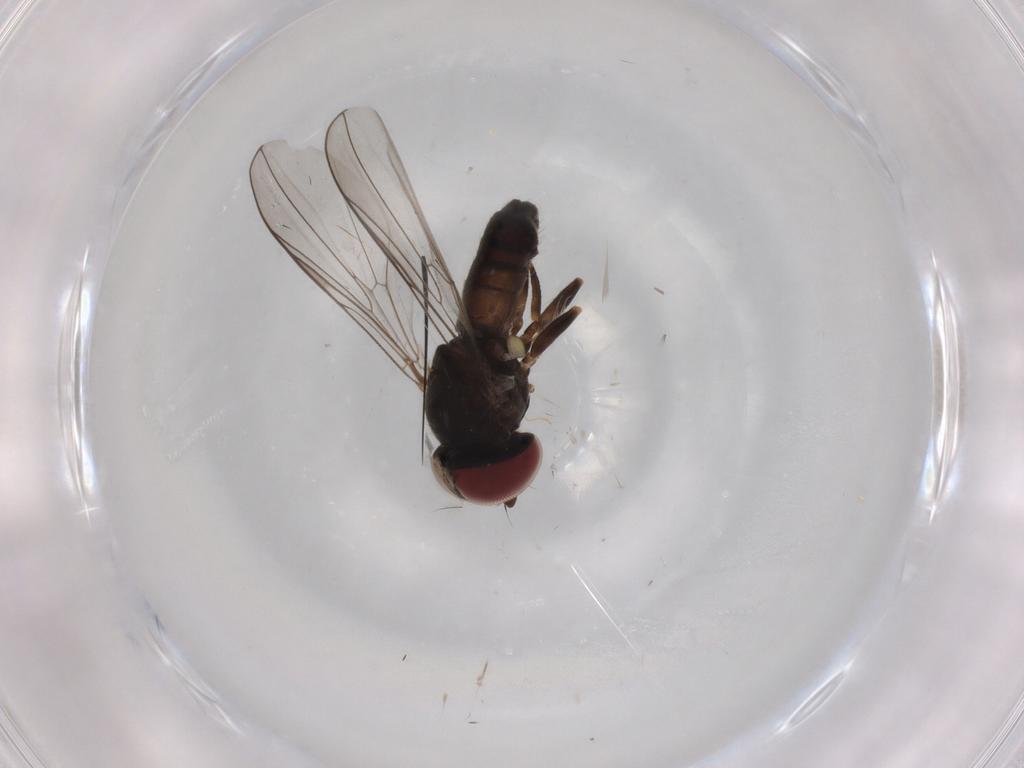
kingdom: Animalia
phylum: Arthropoda
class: Insecta
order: Diptera
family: Pipunculidae
